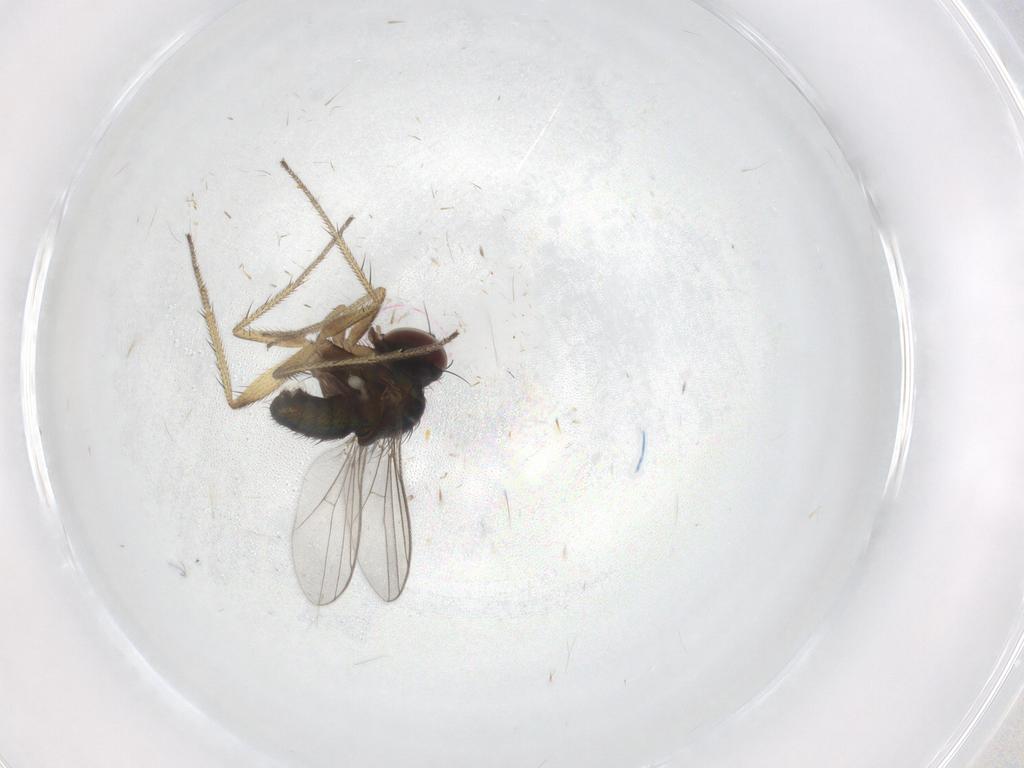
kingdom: Animalia
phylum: Arthropoda
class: Insecta
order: Diptera
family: Dolichopodidae
